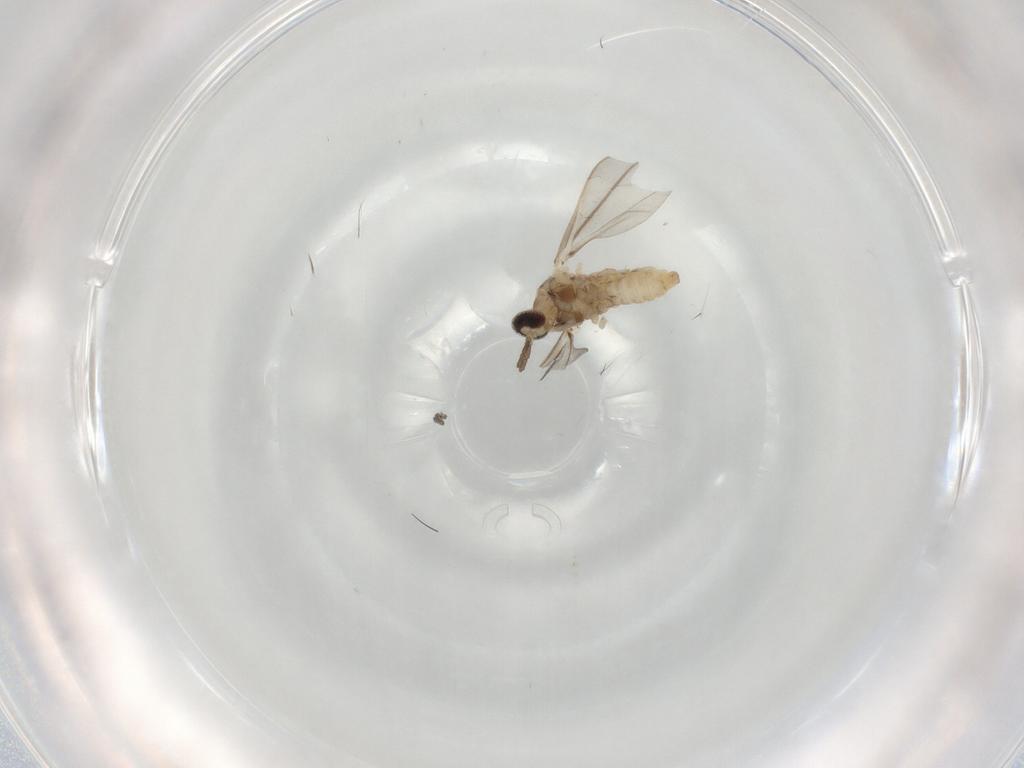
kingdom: Animalia
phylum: Arthropoda
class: Insecta
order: Diptera
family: Cecidomyiidae
